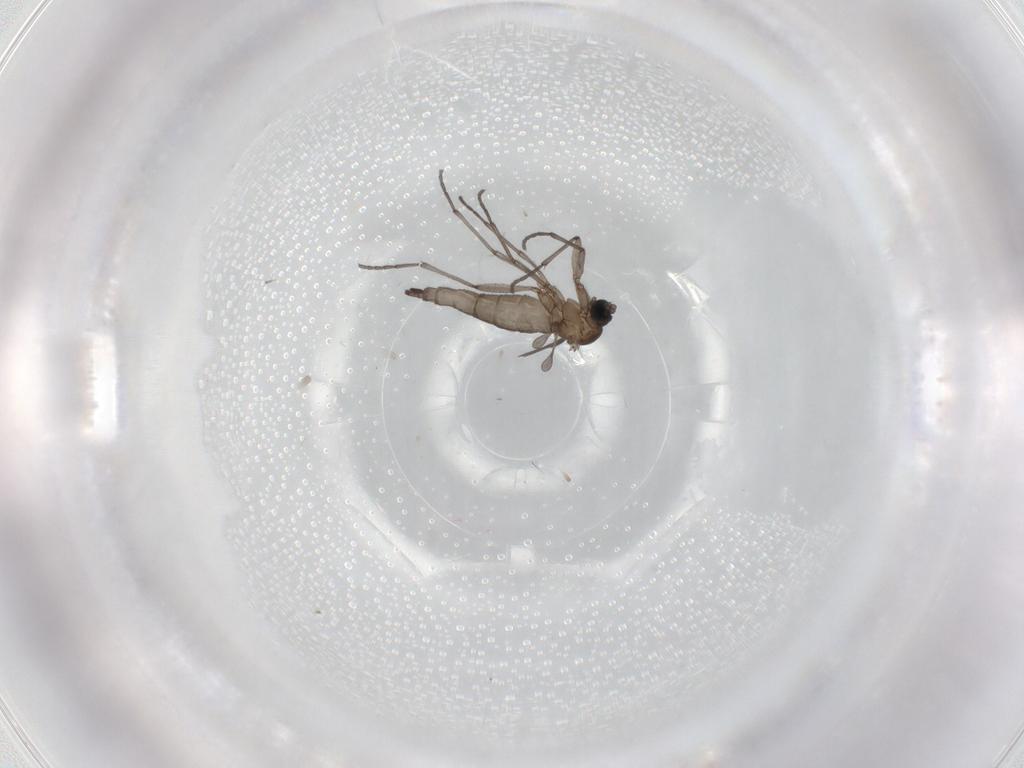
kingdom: Animalia
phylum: Arthropoda
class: Insecta
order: Diptera
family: Sciaridae
